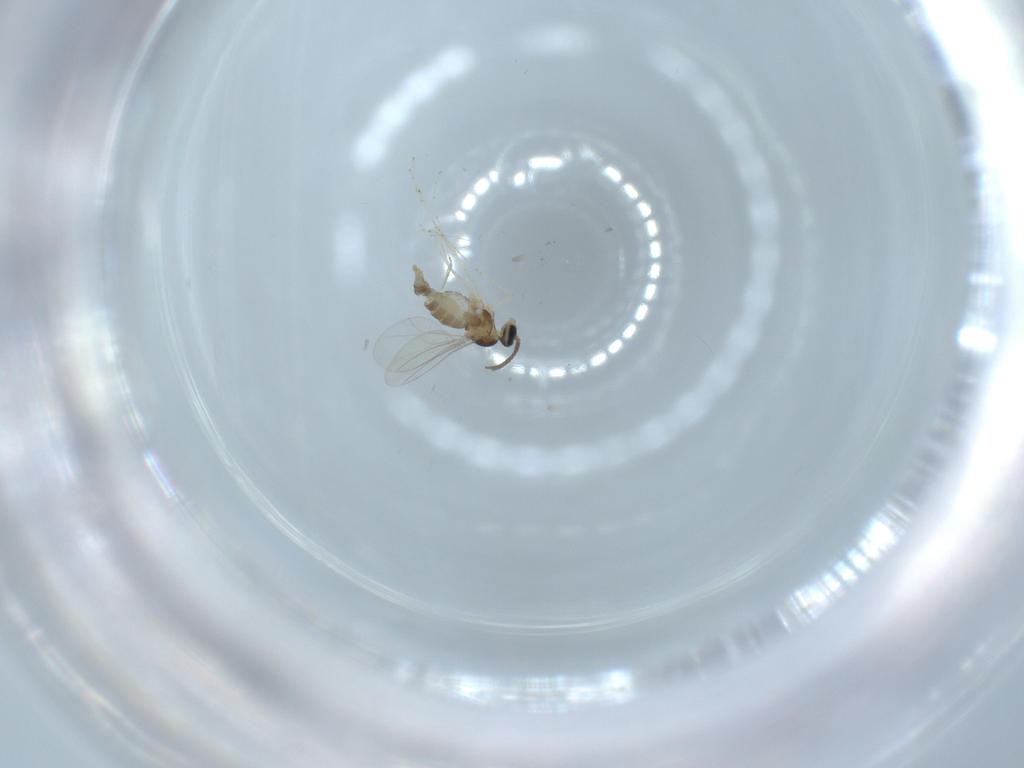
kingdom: Animalia
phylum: Arthropoda
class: Insecta
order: Diptera
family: Cecidomyiidae
